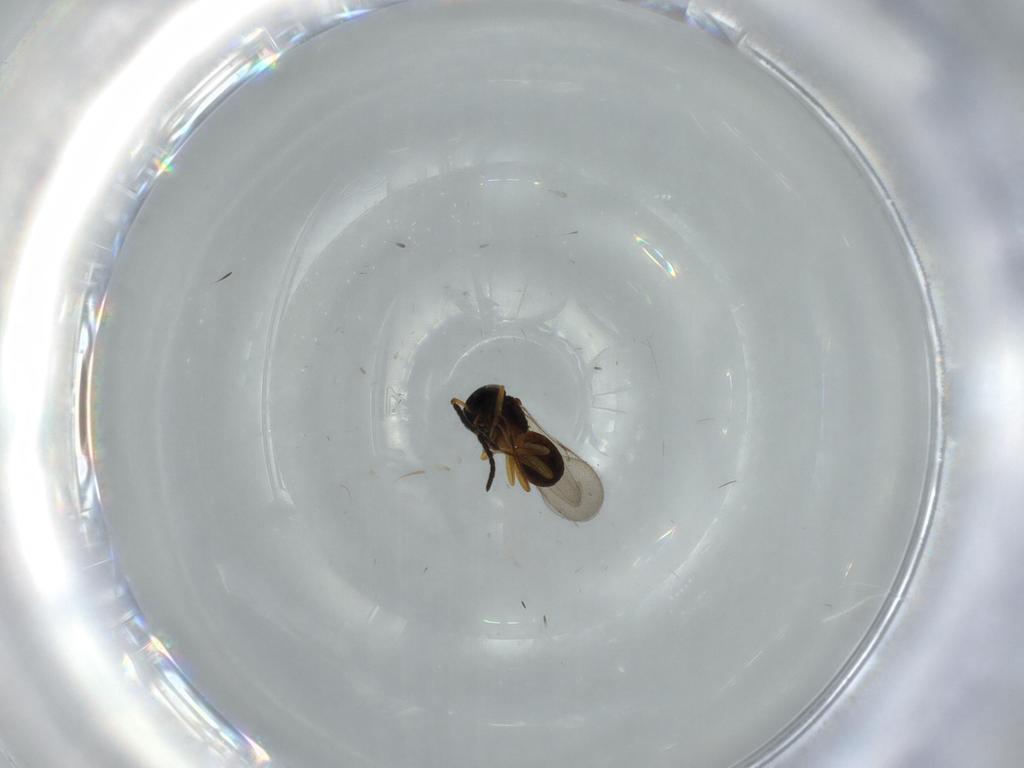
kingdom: Animalia
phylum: Arthropoda
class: Insecta
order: Coleoptera
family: Curculionidae
